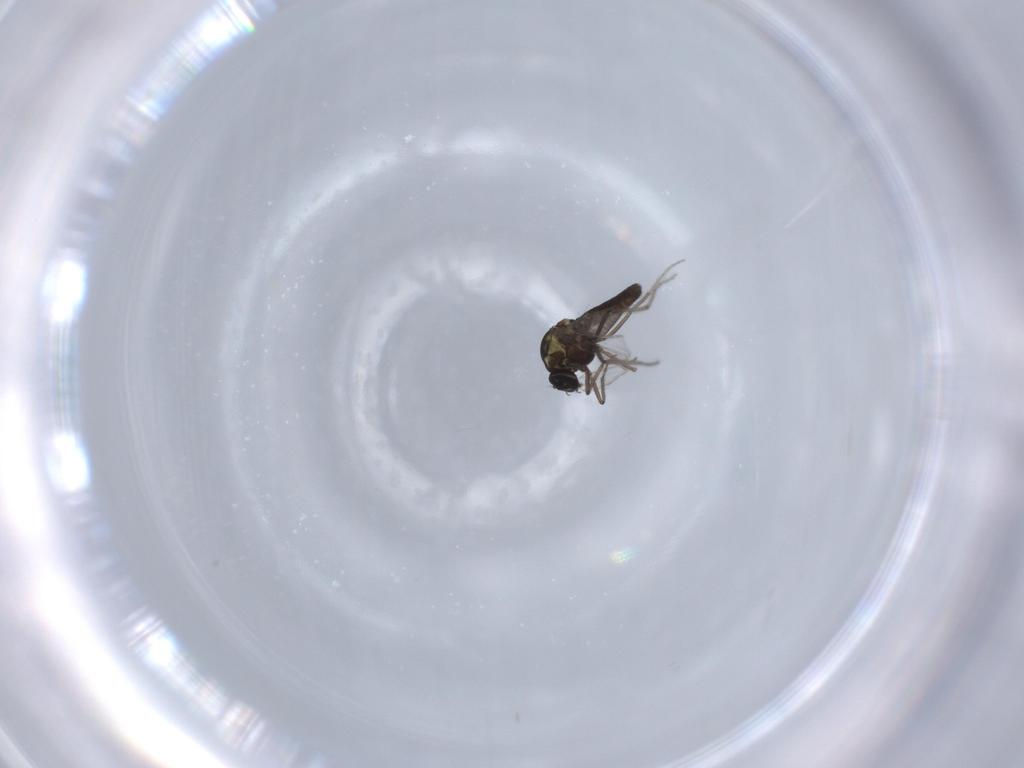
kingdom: Animalia
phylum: Arthropoda
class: Insecta
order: Diptera
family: Ceratopogonidae
